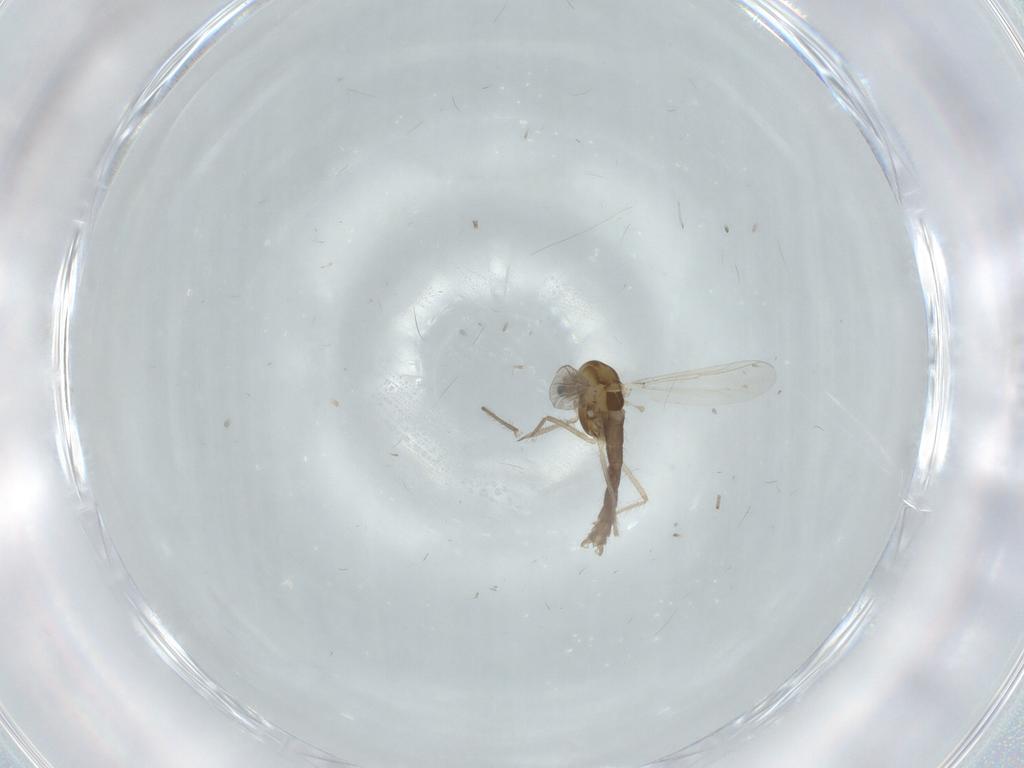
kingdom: Animalia
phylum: Arthropoda
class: Insecta
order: Diptera
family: Chironomidae
